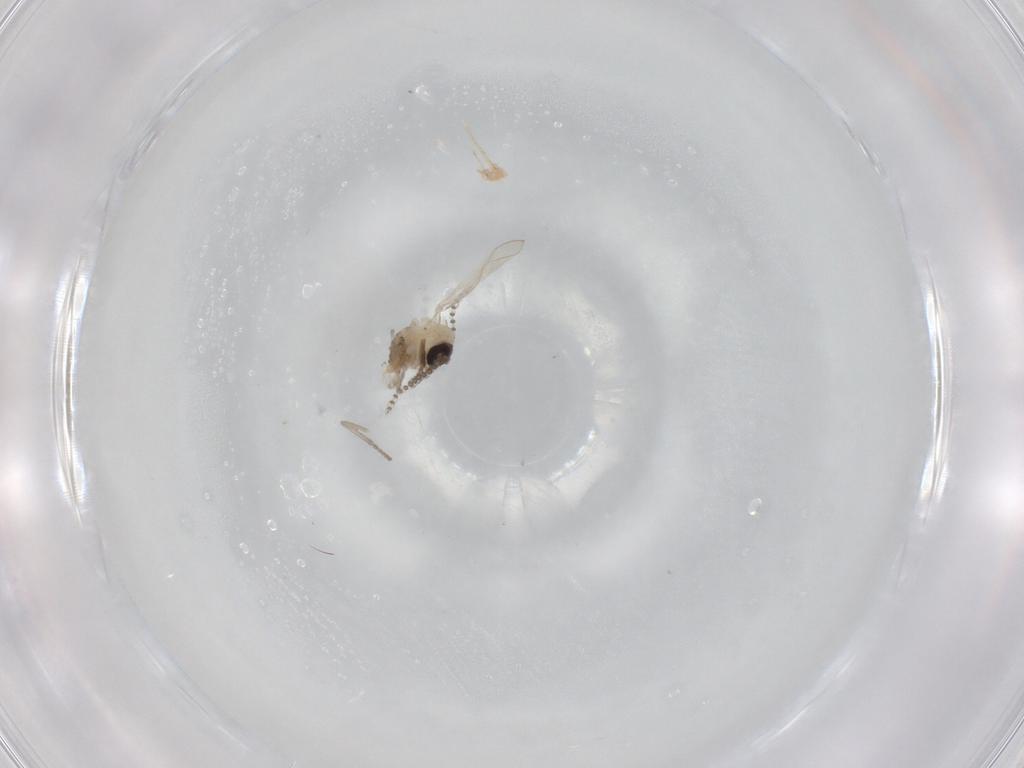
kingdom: Animalia
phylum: Arthropoda
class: Insecta
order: Diptera
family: Psychodidae
